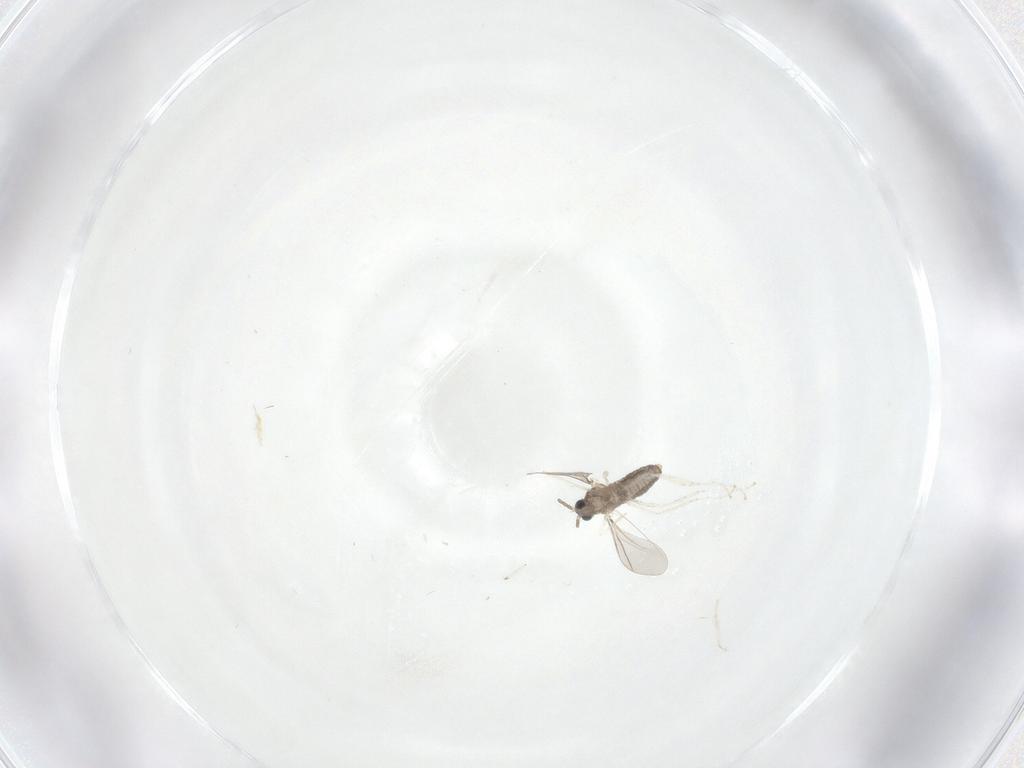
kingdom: Animalia
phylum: Arthropoda
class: Insecta
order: Diptera
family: Cecidomyiidae
